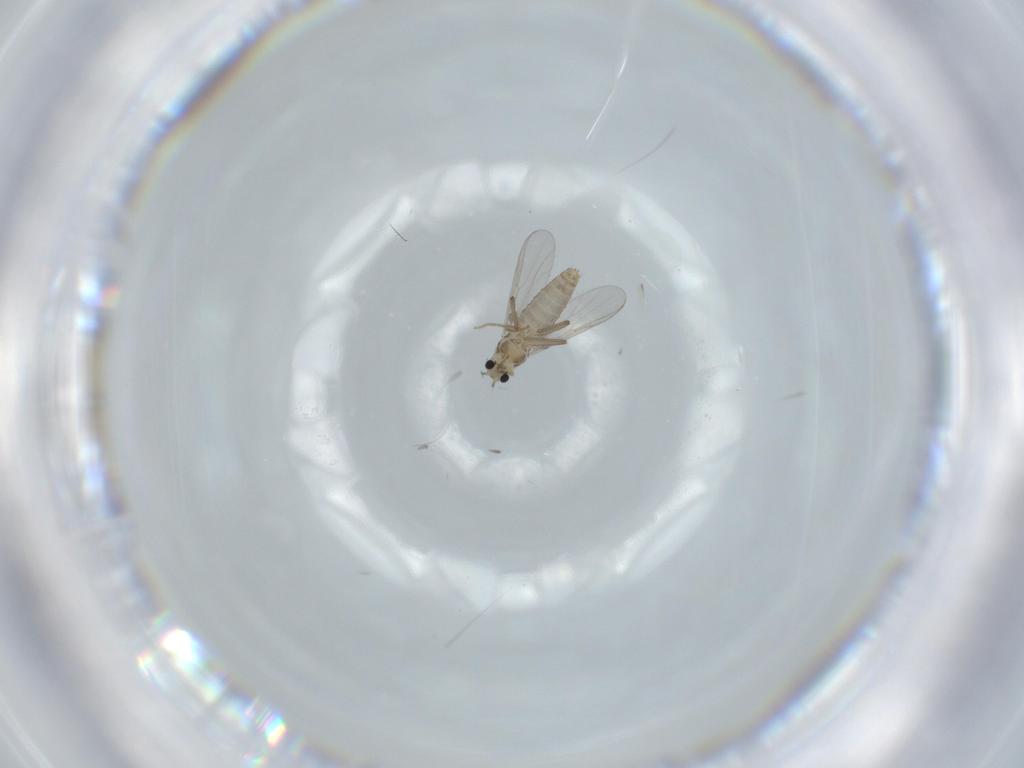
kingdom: Animalia
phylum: Arthropoda
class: Insecta
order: Diptera
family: Chironomidae
